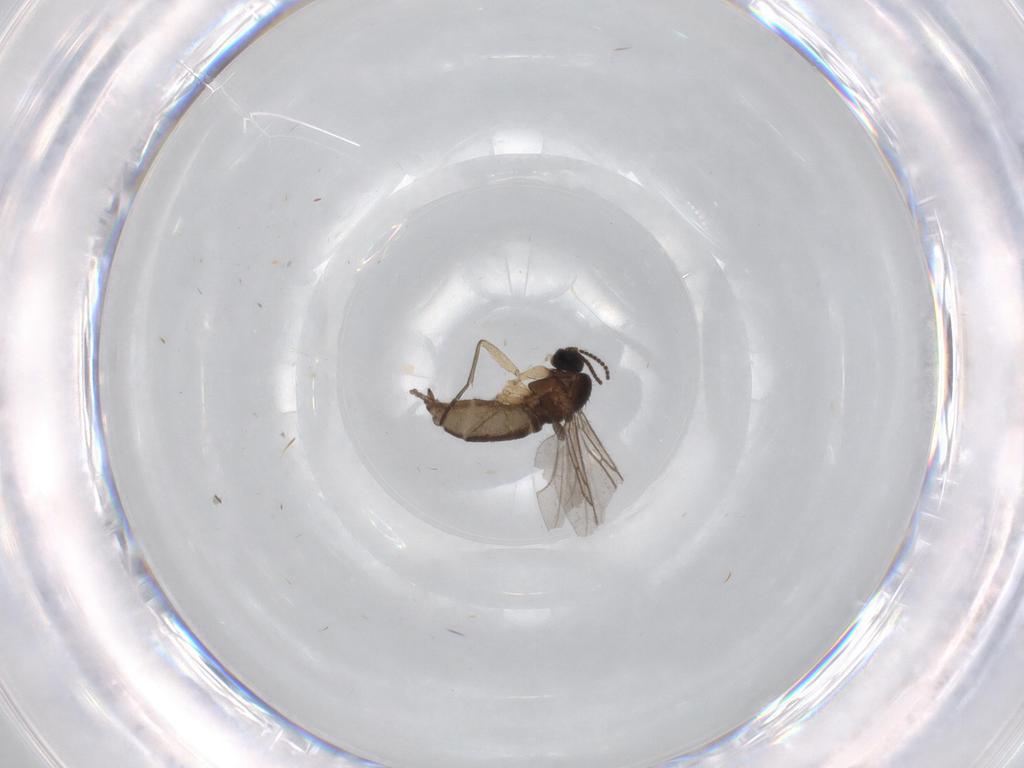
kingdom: Animalia
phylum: Arthropoda
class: Insecta
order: Diptera
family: Sciaridae
